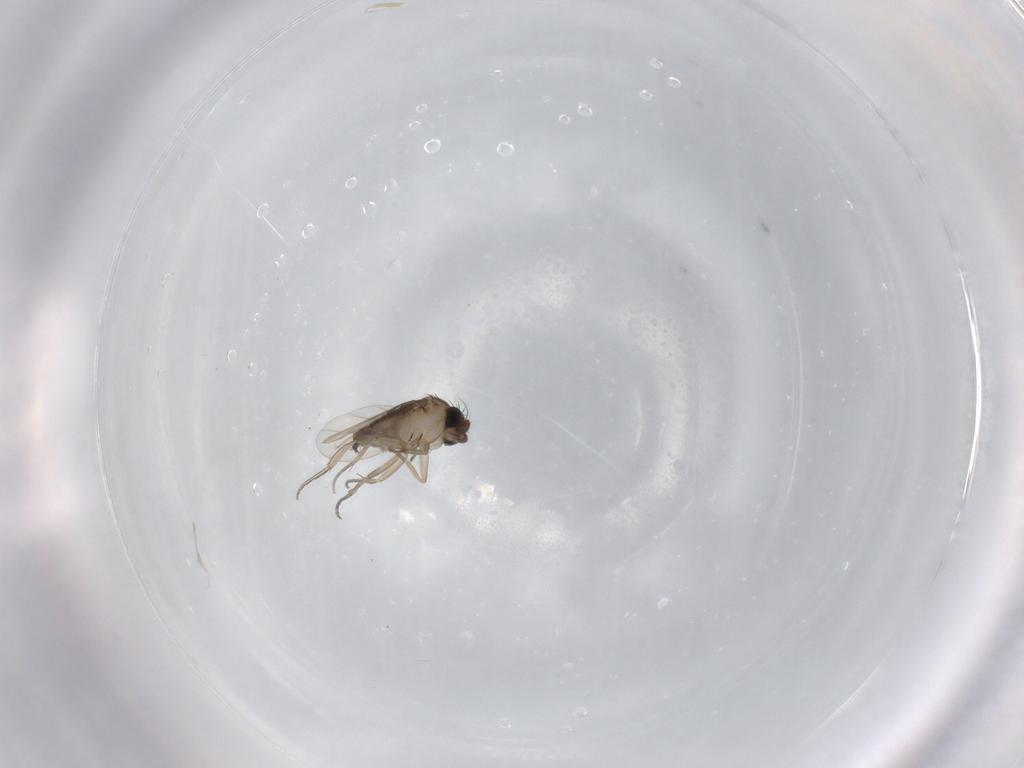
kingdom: Animalia
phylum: Arthropoda
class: Insecta
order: Diptera
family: Phoridae
